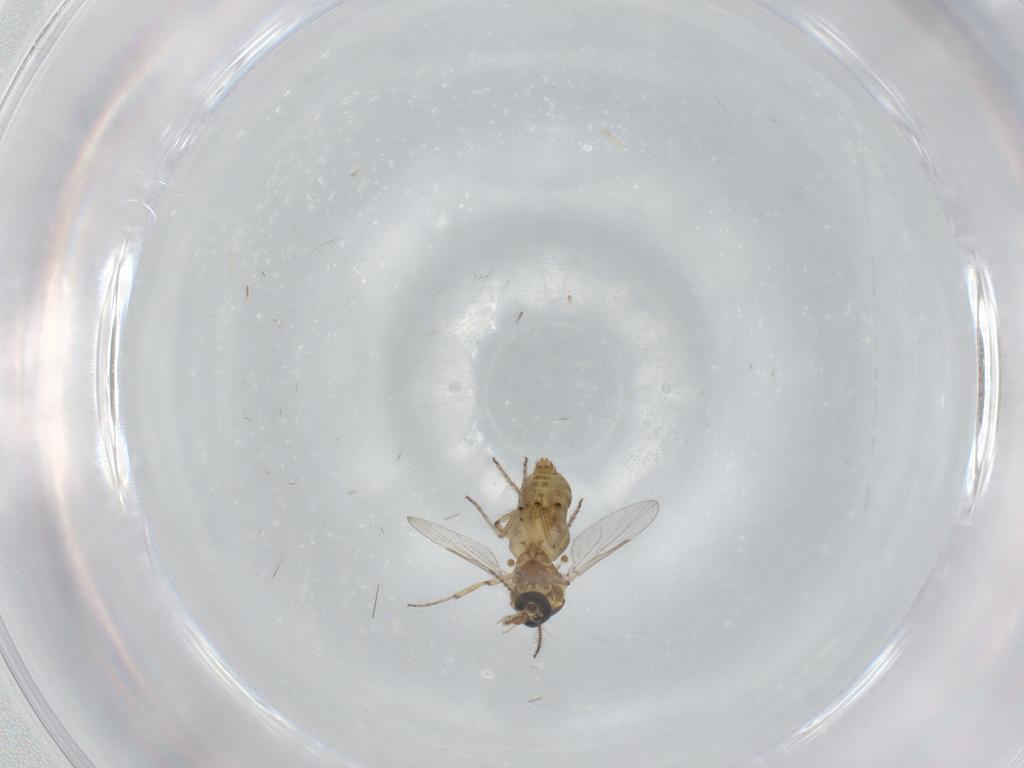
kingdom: Animalia
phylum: Arthropoda
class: Insecta
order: Diptera
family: Ceratopogonidae
